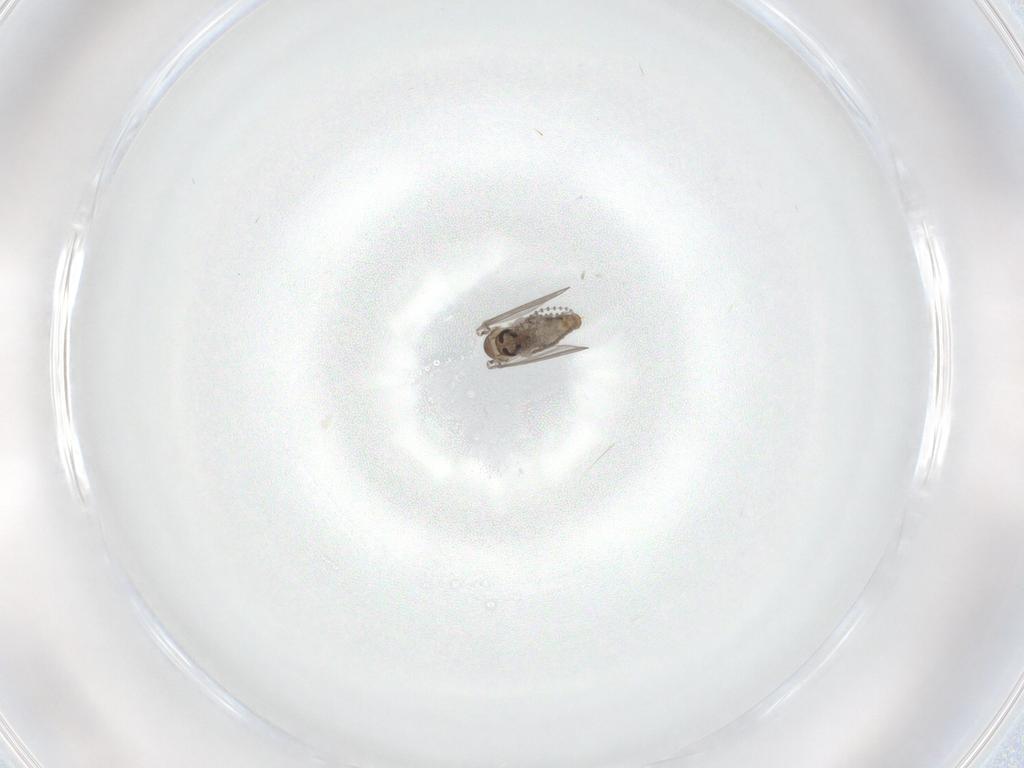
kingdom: Animalia
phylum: Arthropoda
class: Insecta
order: Diptera
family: Psychodidae
